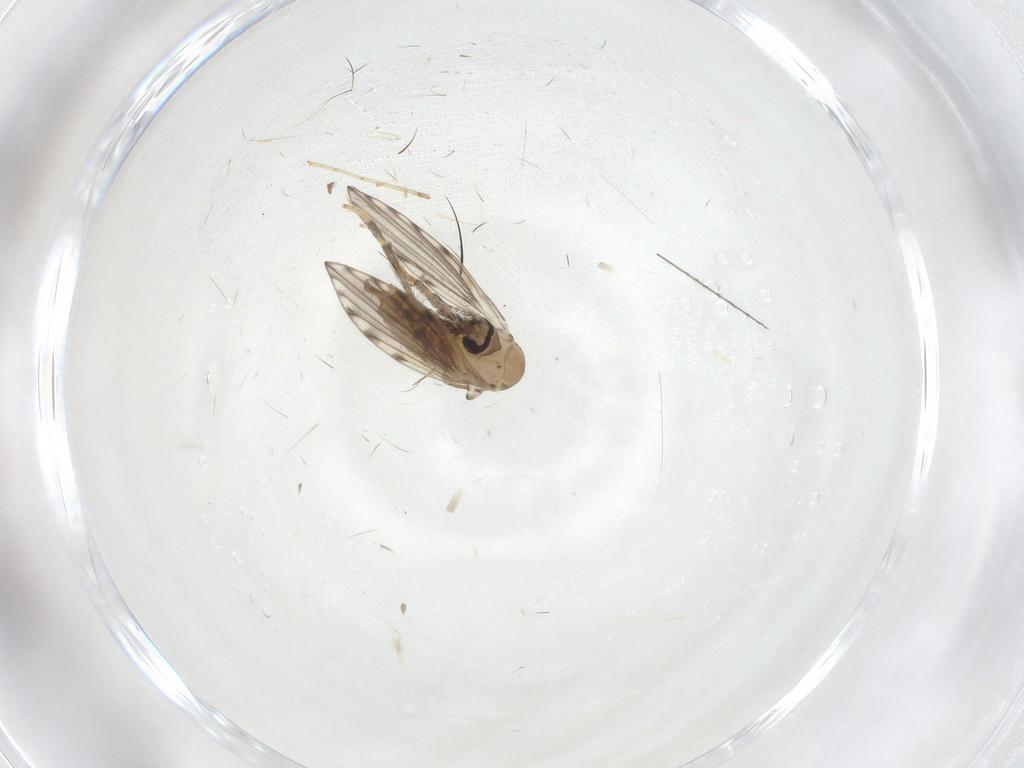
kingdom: Animalia
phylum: Arthropoda
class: Insecta
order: Diptera
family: Psychodidae
